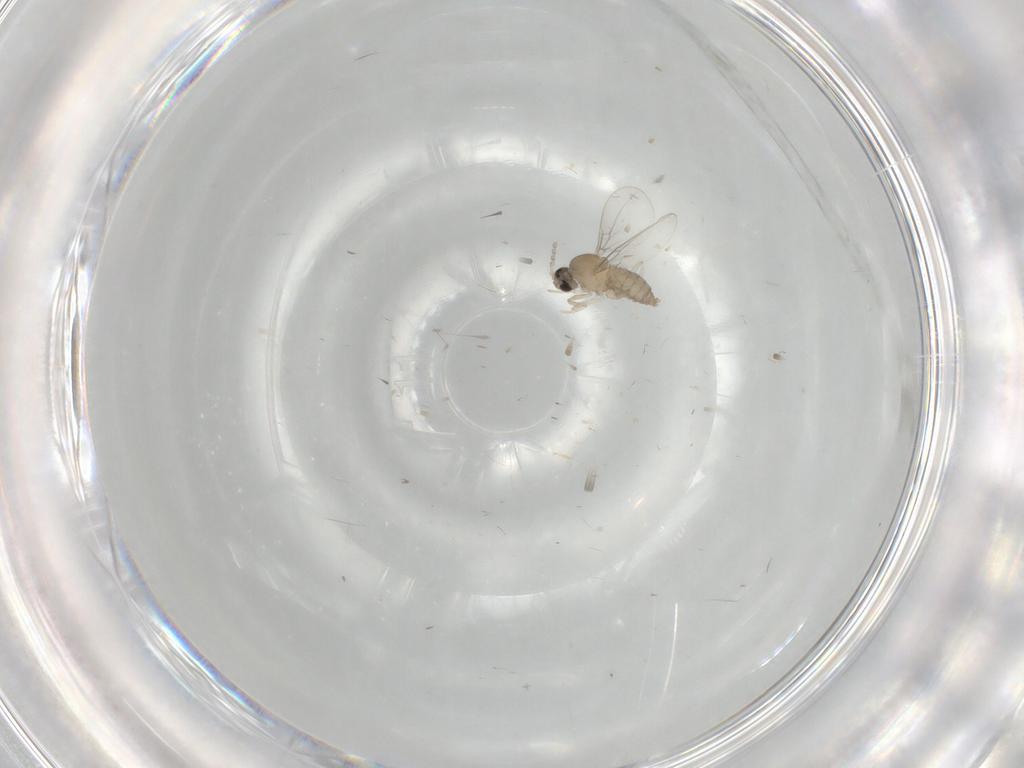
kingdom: Animalia
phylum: Arthropoda
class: Insecta
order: Diptera
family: Cecidomyiidae
